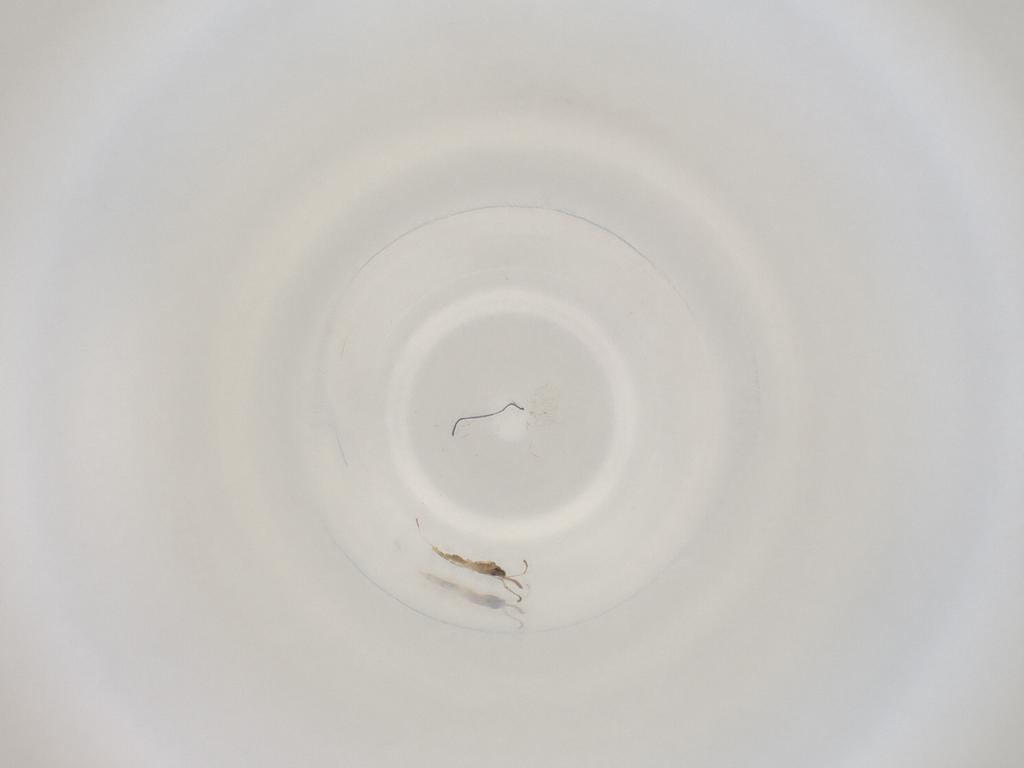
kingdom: Animalia
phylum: Arthropoda
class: Insecta
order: Diptera
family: Cecidomyiidae
